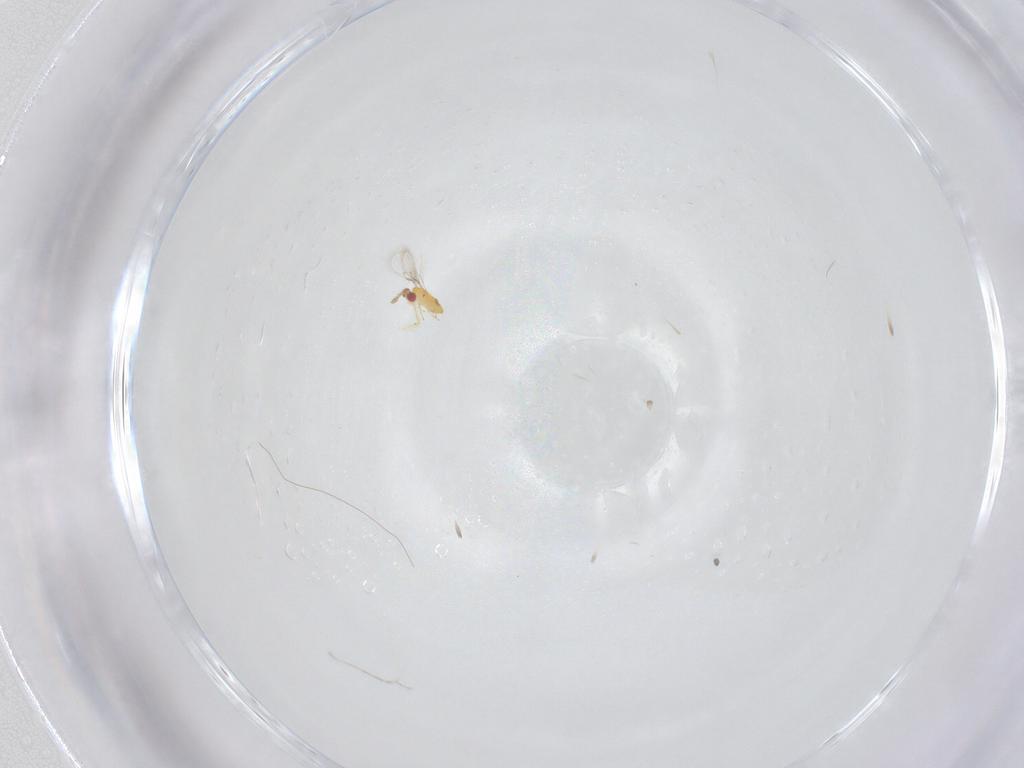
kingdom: Animalia
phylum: Arthropoda
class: Insecta
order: Hymenoptera
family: Trichogrammatidae
